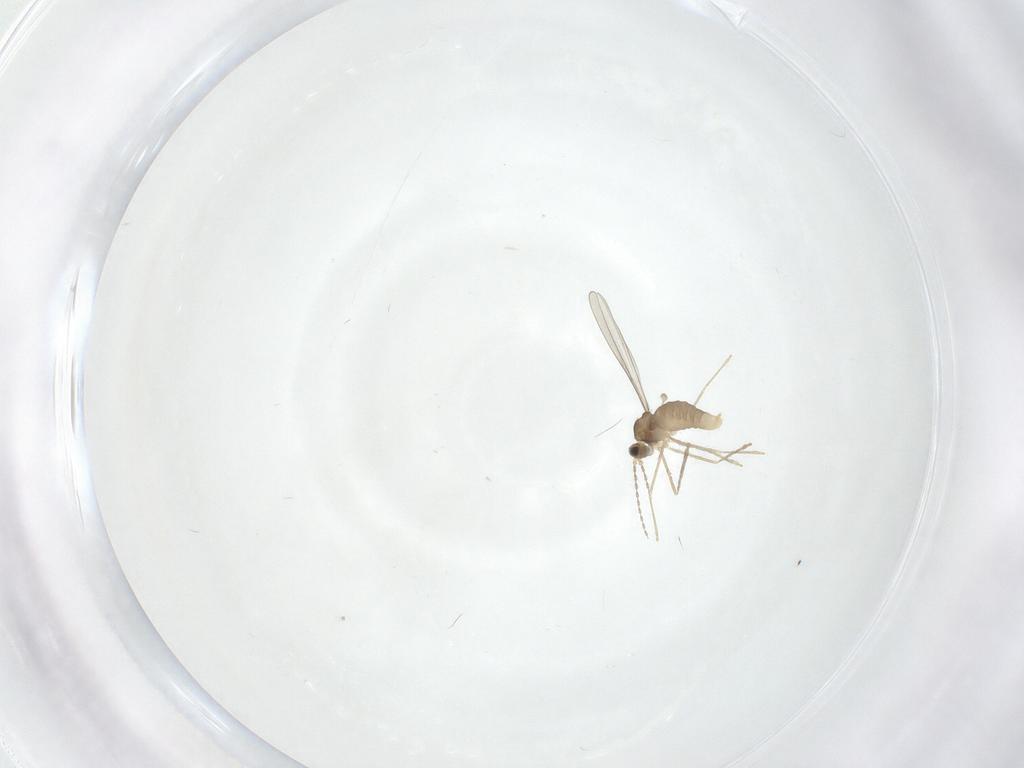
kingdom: Animalia
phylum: Arthropoda
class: Insecta
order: Diptera
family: Cecidomyiidae
